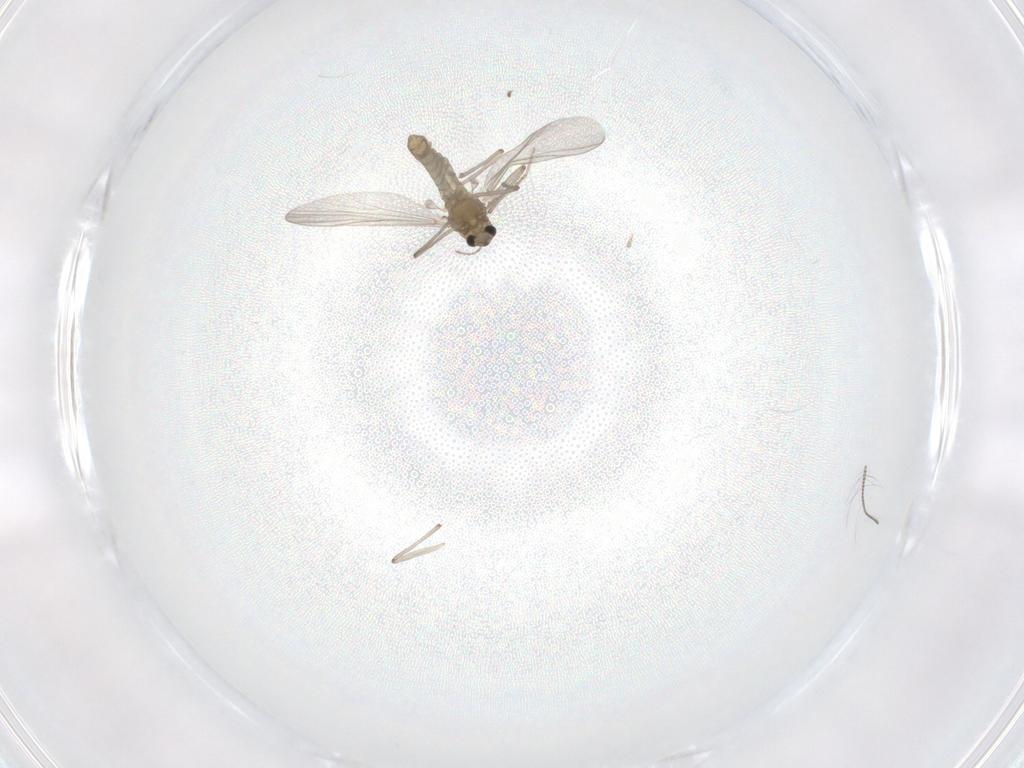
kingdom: Animalia
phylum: Arthropoda
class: Insecta
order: Diptera
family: Chironomidae
